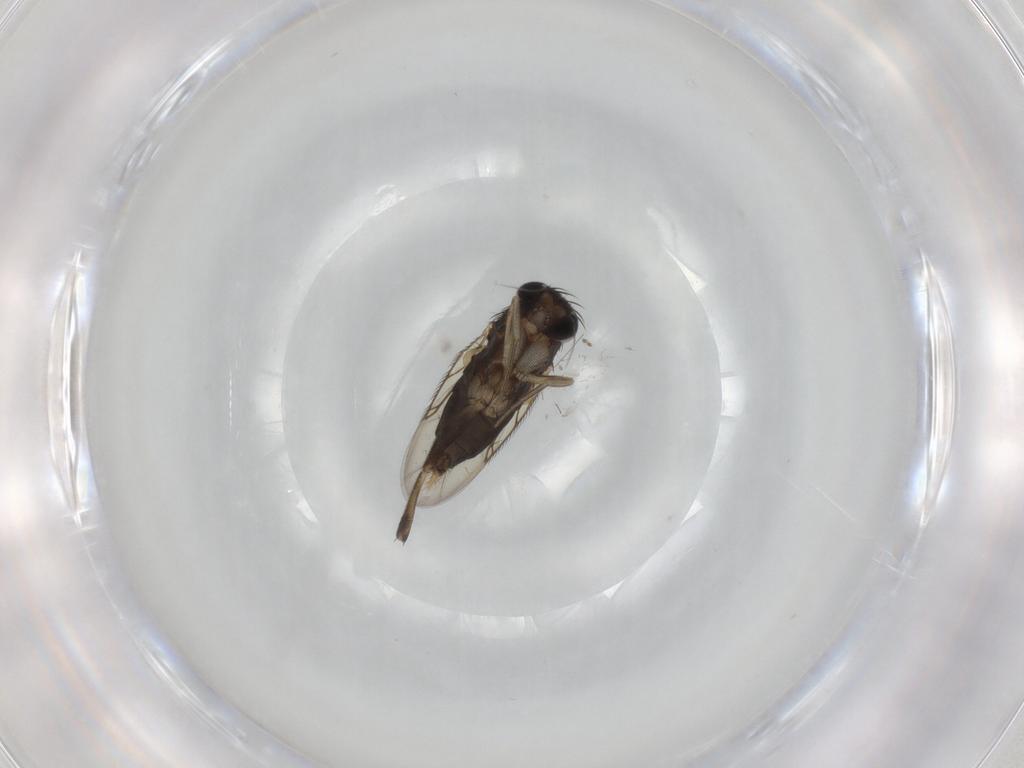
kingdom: Animalia
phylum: Arthropoda
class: Insecta
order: Diptera
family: Phoridae
